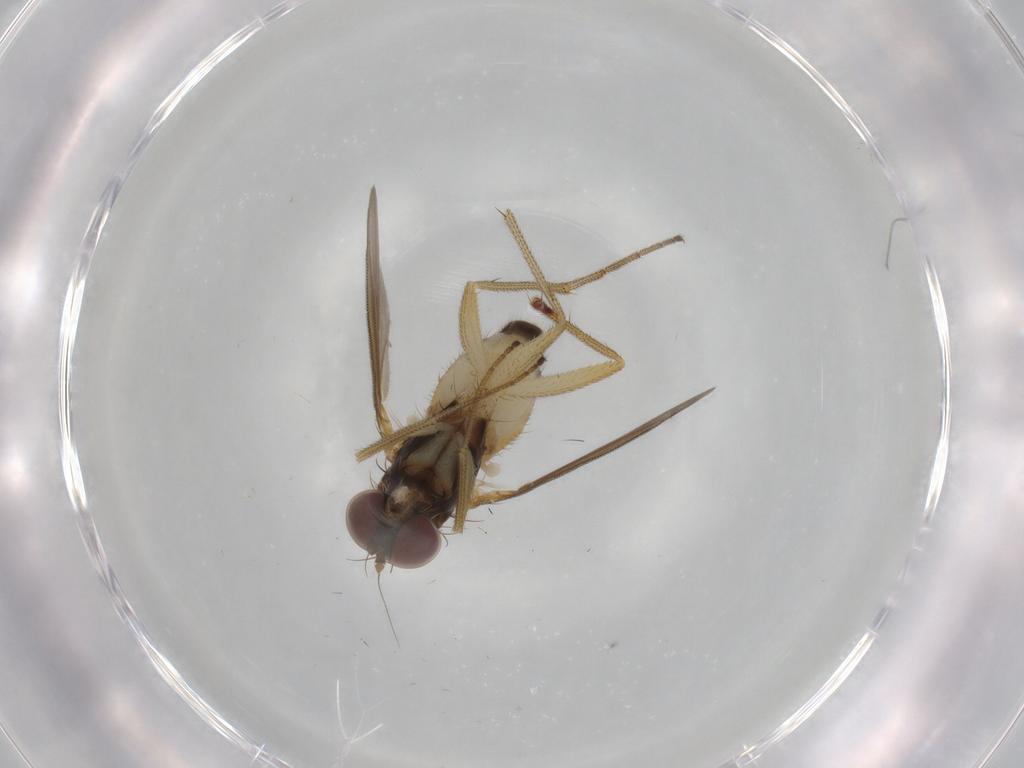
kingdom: Animalia
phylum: Arthropoda
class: Insecta
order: Diptera
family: Dolichopodidae
